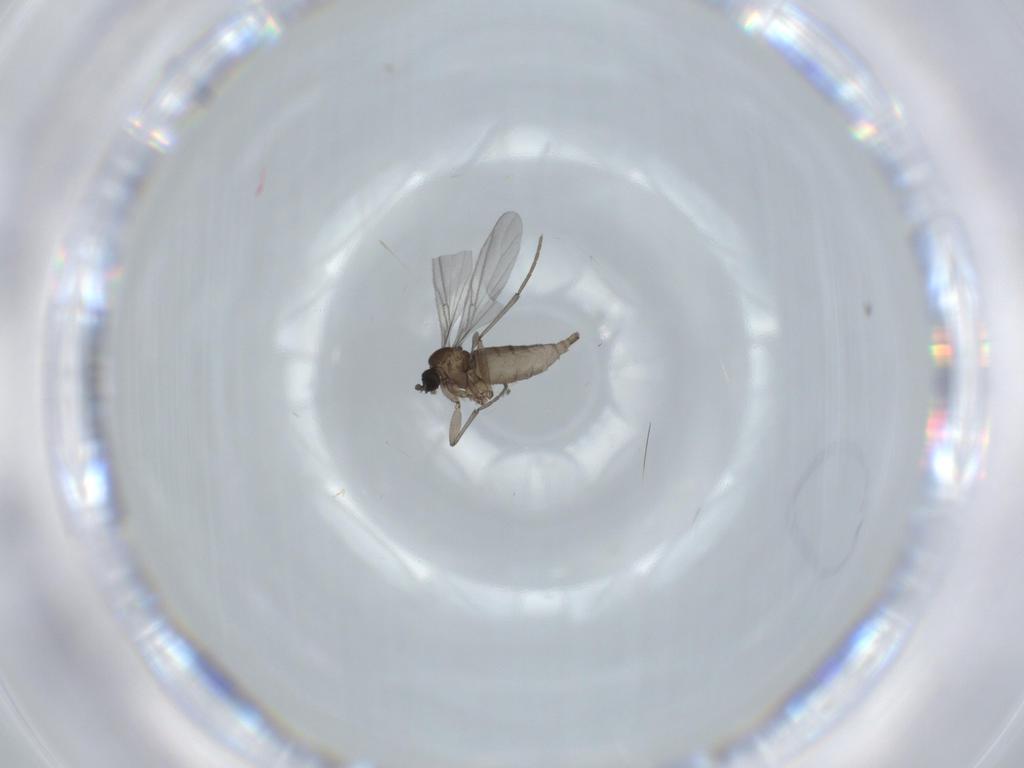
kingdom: Animalia
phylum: Arthropoda
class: Insecta
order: Diptera
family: Sciaridae
